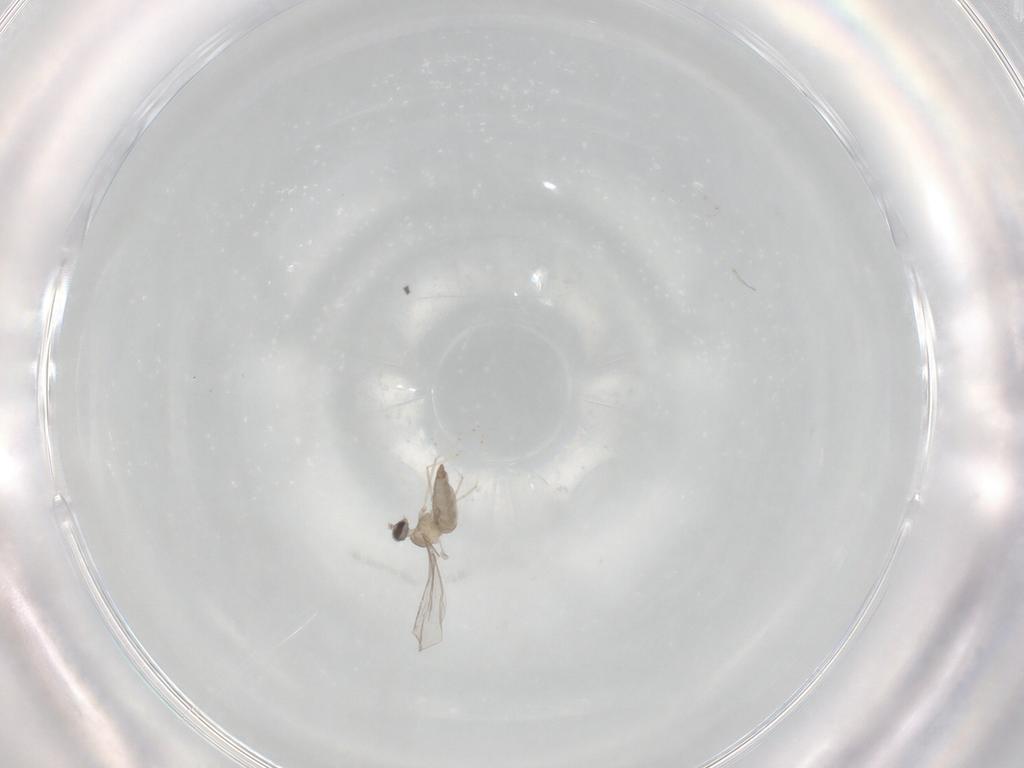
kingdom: Animalia
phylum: Arthropoda
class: Insecta
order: Diptera
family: Cecidomyiidae
